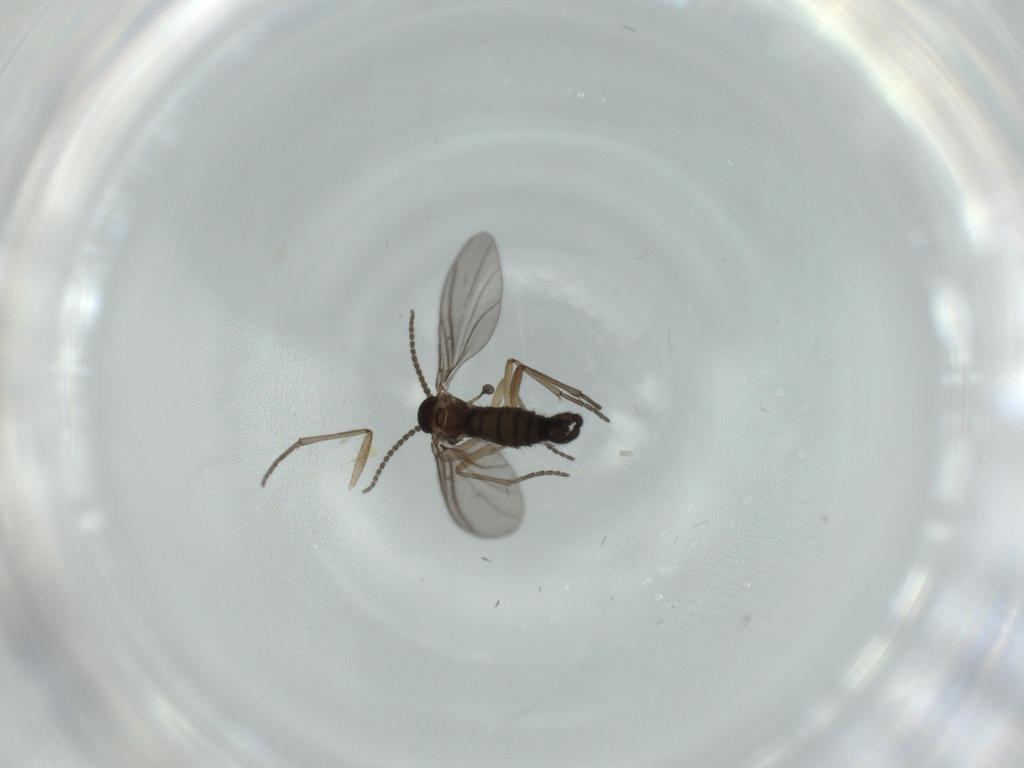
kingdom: Animalia
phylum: Arthropoda
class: Insecta
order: Diptera
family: Sciaridae
